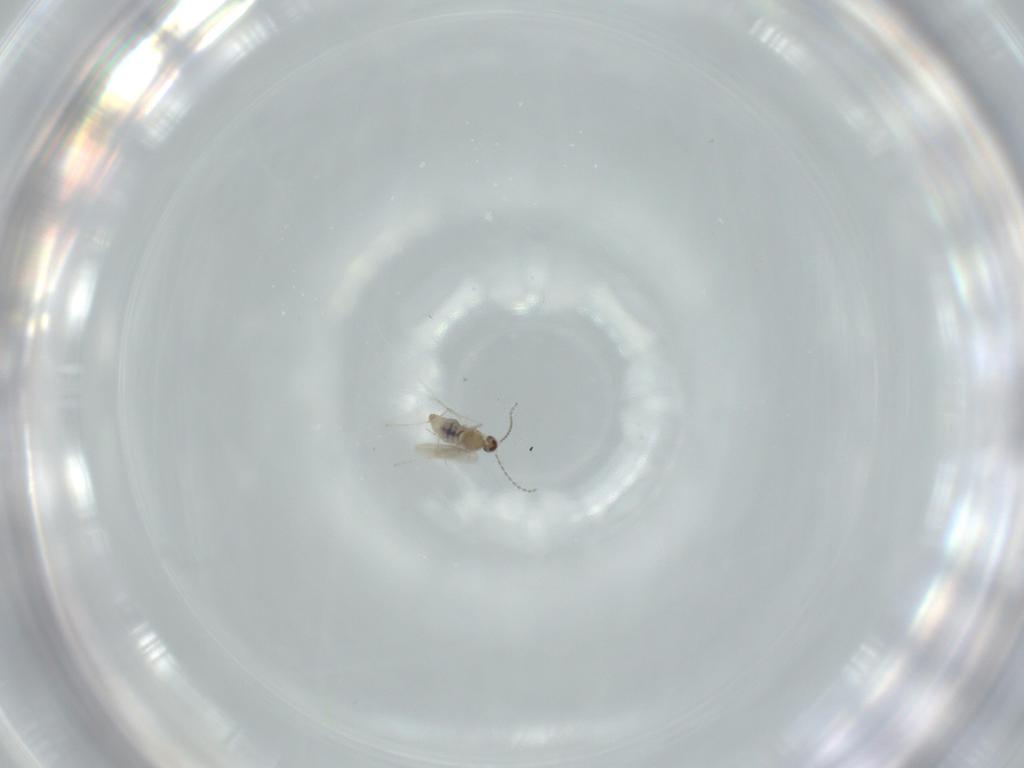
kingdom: Animalia
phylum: Arthropoda
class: Insecta
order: Diptera
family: Cecidomyiidae
